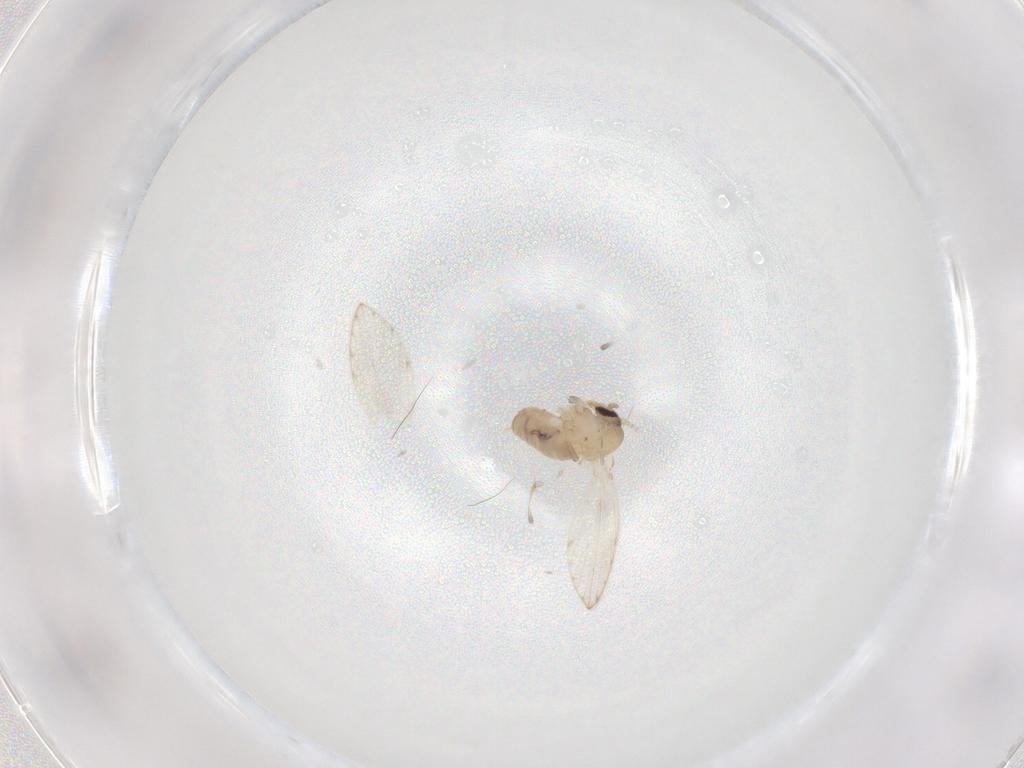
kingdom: Animalia
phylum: Arthropoda
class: Insecta
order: Diptera
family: Psychodidae
